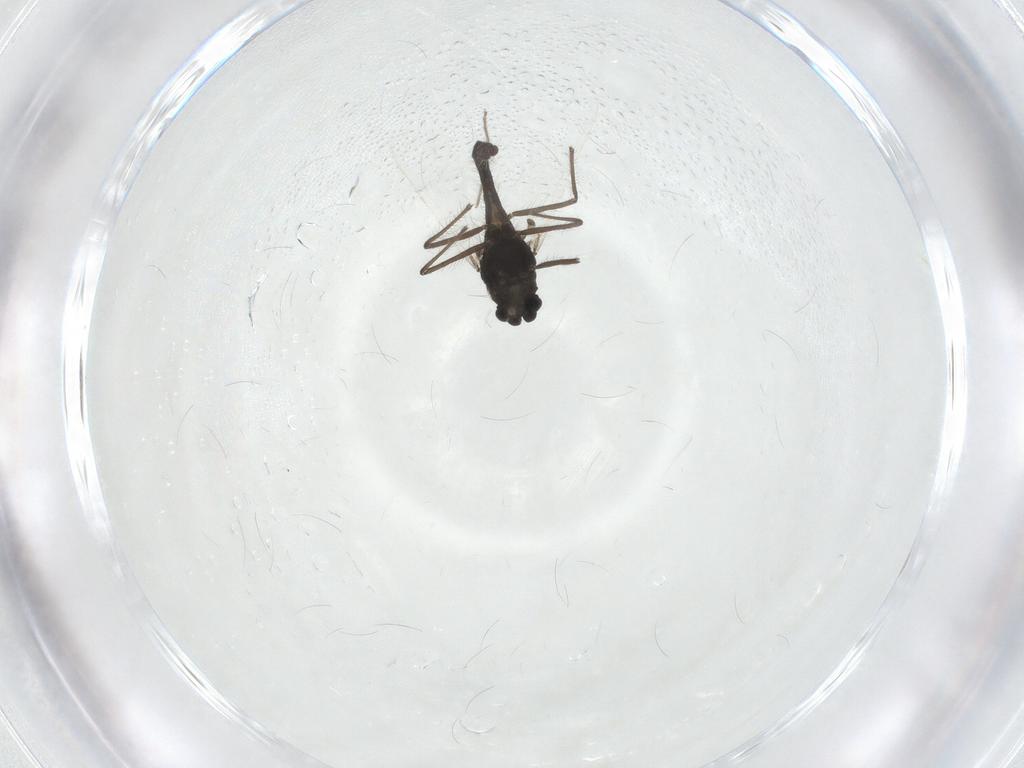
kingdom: Animalia
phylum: Arthropoda
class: Insecta
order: Diptera
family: Chironomidae
